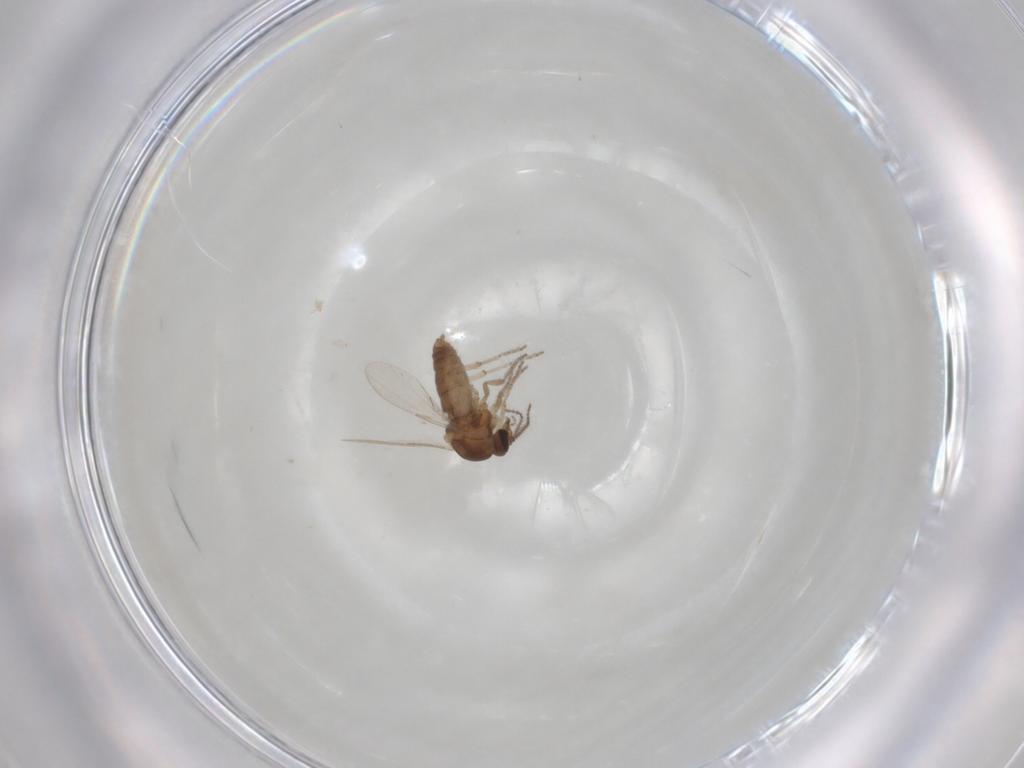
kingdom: Animalia
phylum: Arthropoda
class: Insecta
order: Diptera
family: Ceratopogonidae
